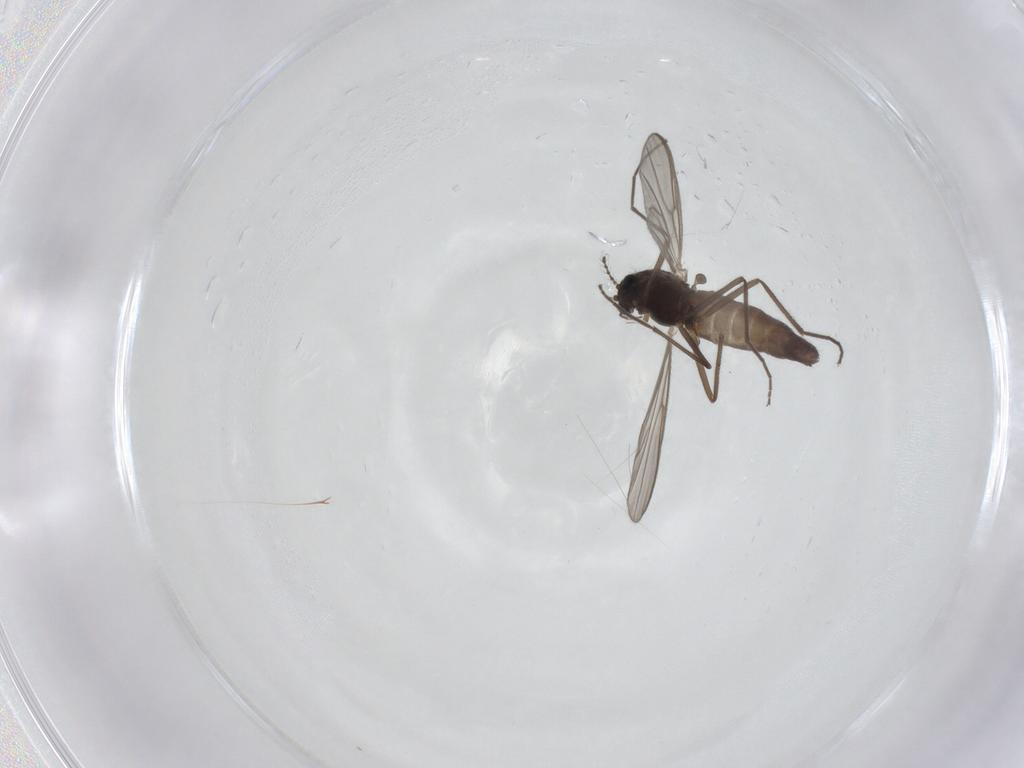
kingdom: Animalia
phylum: Arthropoda
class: Insecta
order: Diptera
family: Chironomidae
